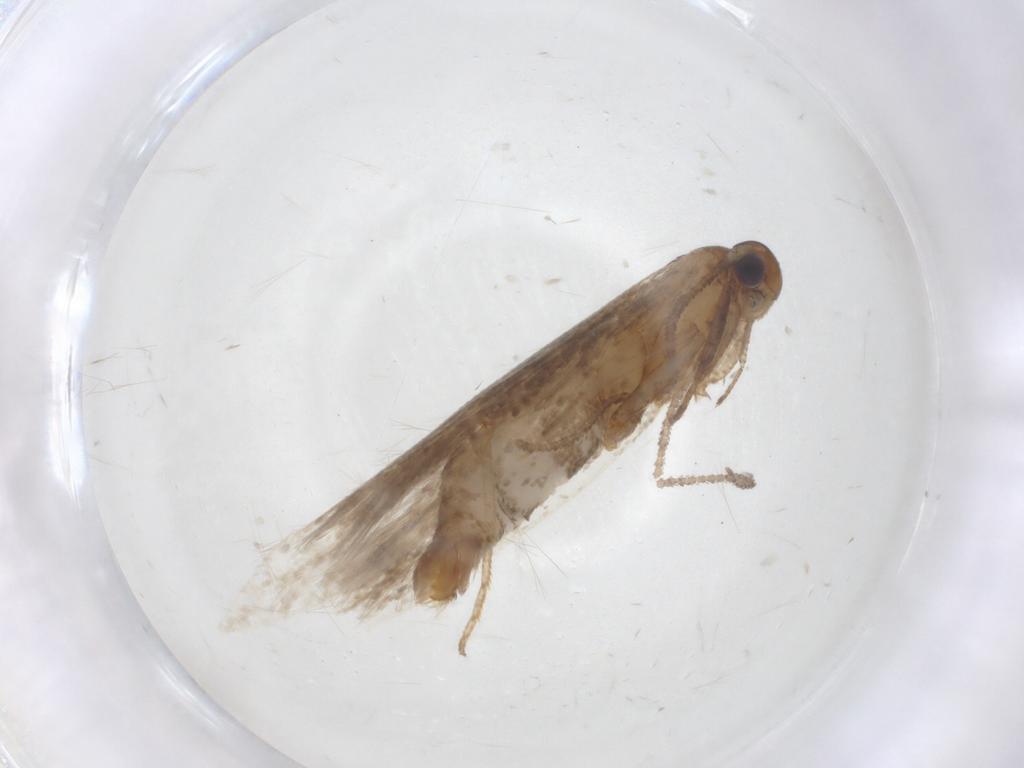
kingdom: Animalia
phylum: Arthropoda
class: Insecta
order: Lepidoptera
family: Momphidae
